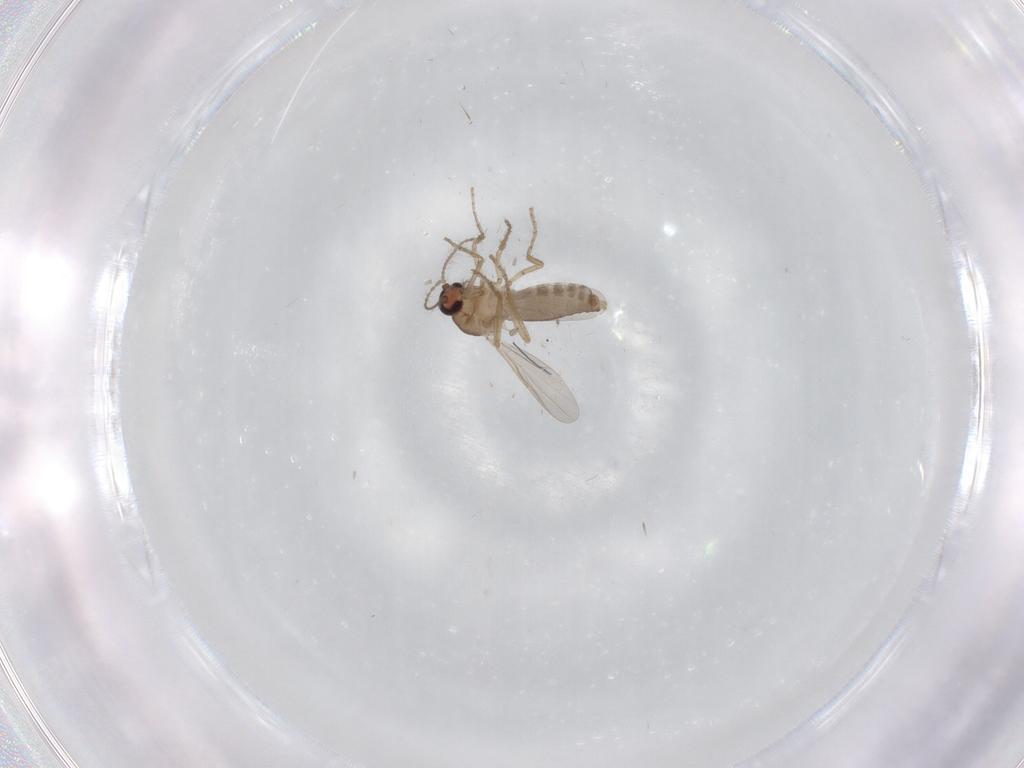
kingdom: Animalia
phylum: Arthropoda
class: Insecta
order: Diptera
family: Ceratopogonidae
